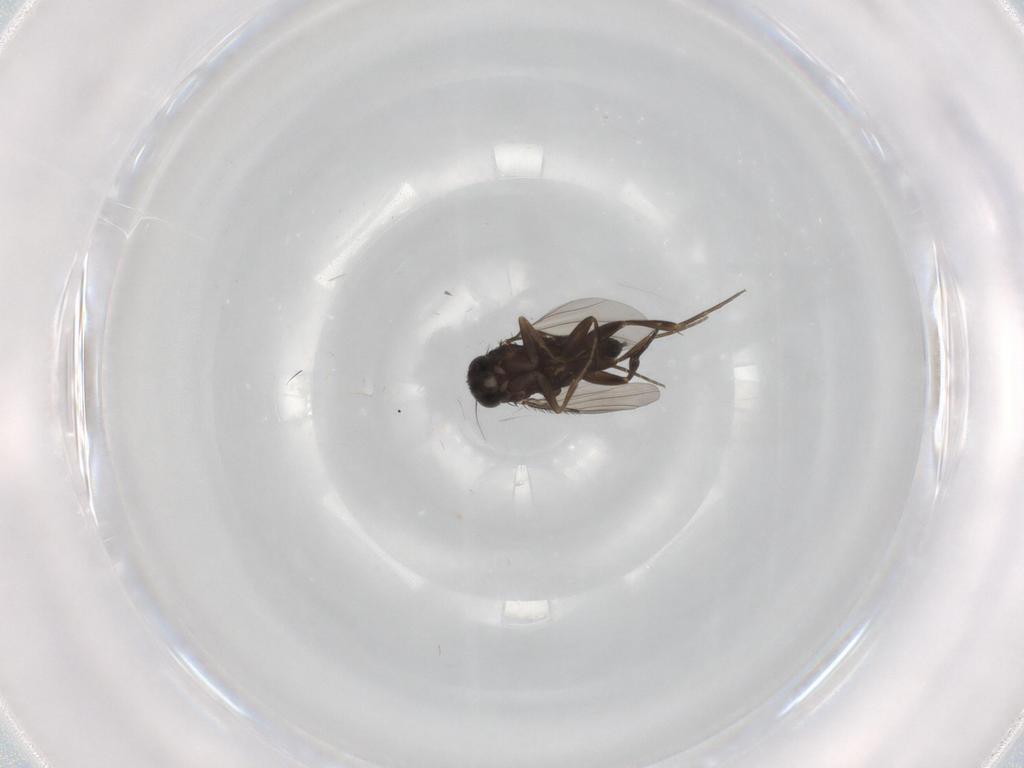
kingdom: Animalia
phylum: Arthropoda
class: Insecta
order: Diptera
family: Phoridae
